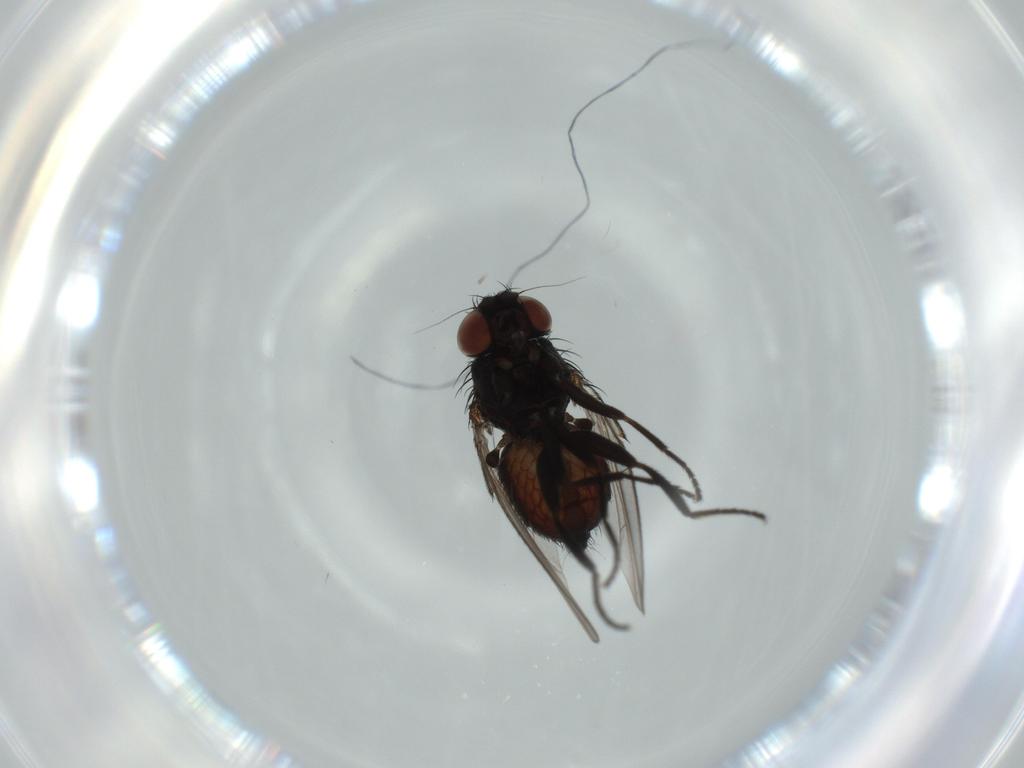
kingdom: Animalia
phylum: Arthropoda
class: Insecta
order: Diptera
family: Milichiidae
